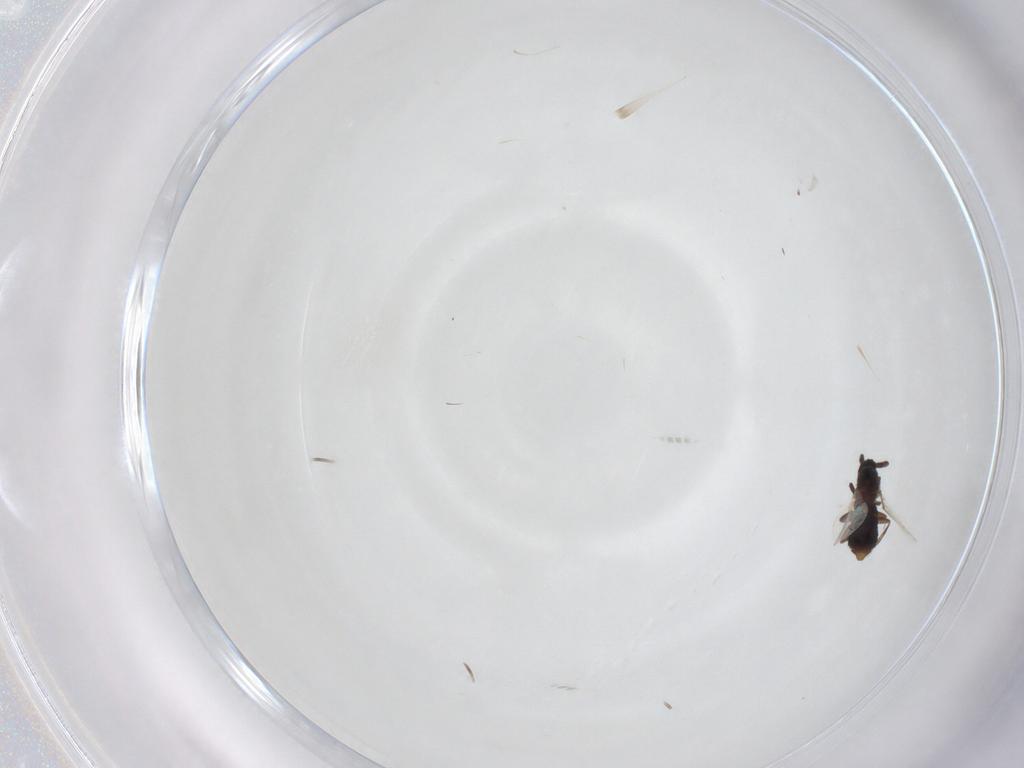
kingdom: Animalia
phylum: Arthropoda
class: Insecta
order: Diptera
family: Scatopsidae
